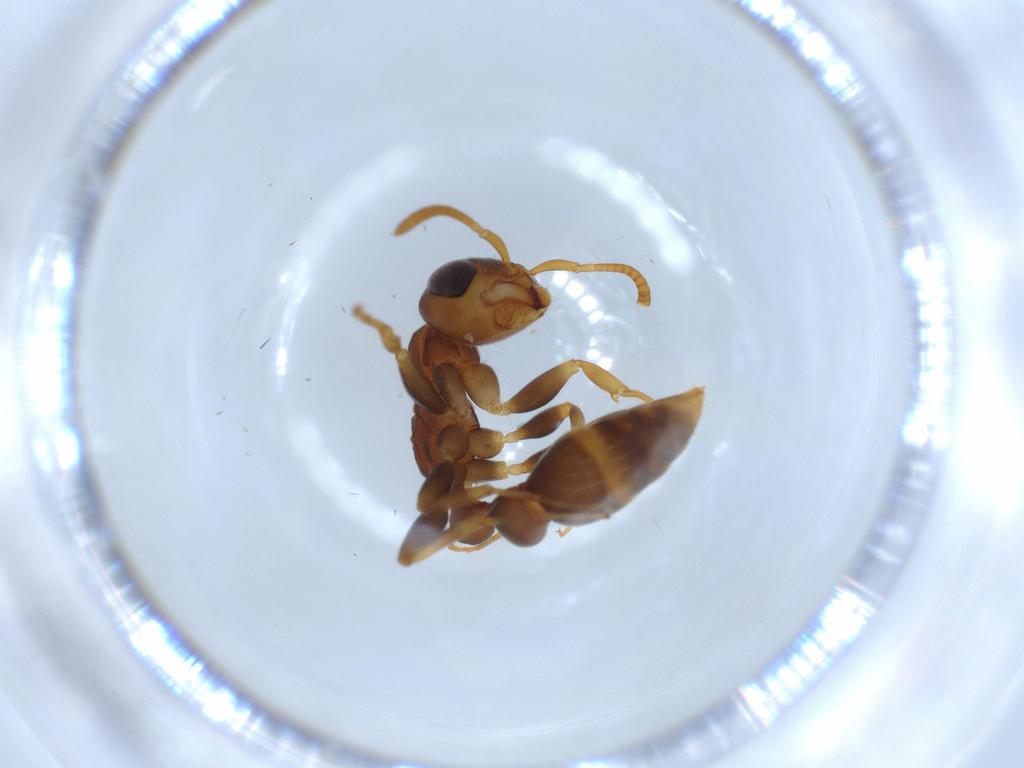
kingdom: Animalia
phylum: Arthropoda
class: Insecta
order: Hymenoptera
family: Formicidae
